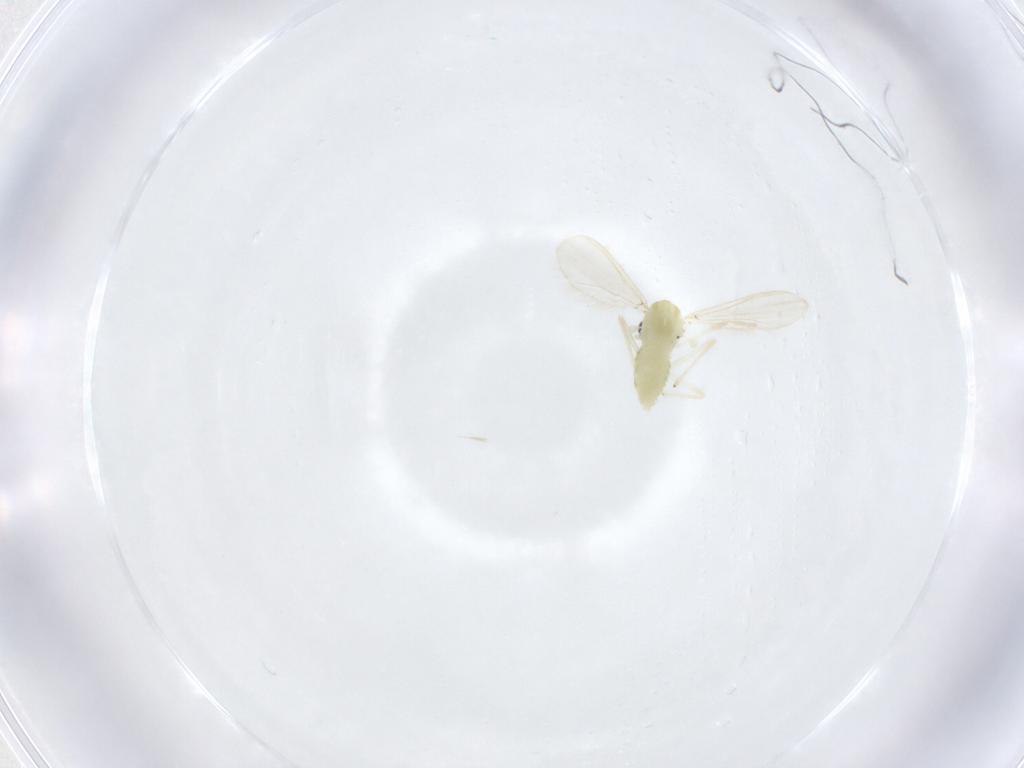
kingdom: Animalia
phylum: Arthropoda
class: Insecta
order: Diptera
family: Chironomidae
